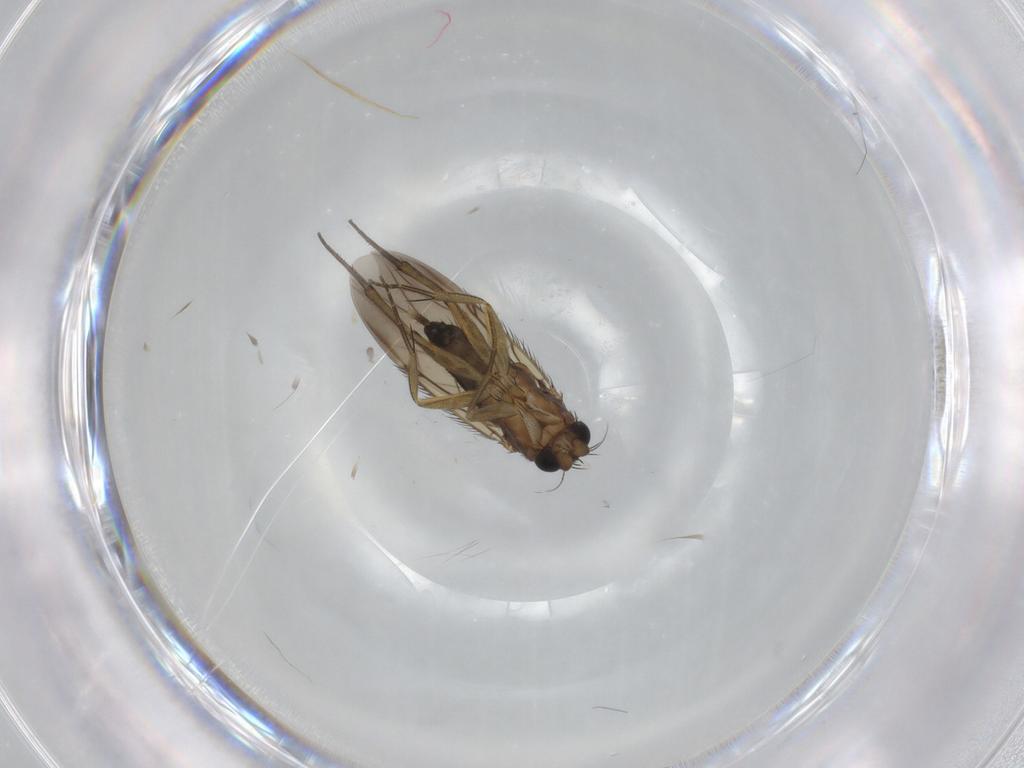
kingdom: Animalia
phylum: Arthropoda
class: Insecta
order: Diptera
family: Phoridae
